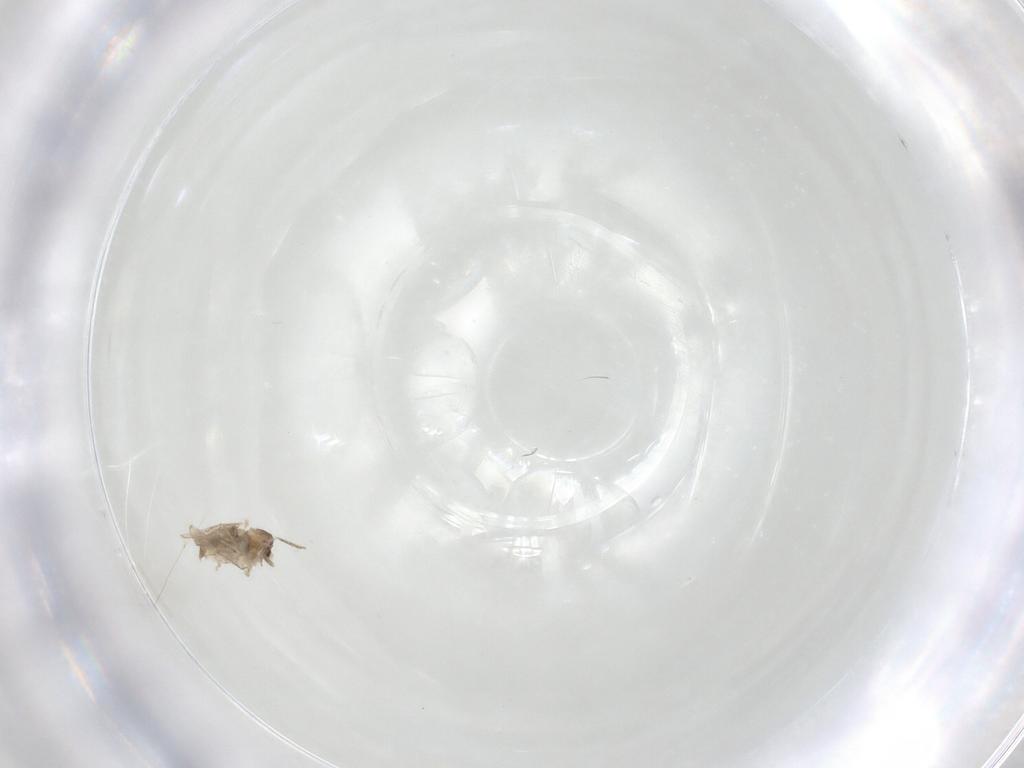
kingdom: Animalia
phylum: Arthropoda
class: Insecta
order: Diptera
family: Cecidomyiidae
